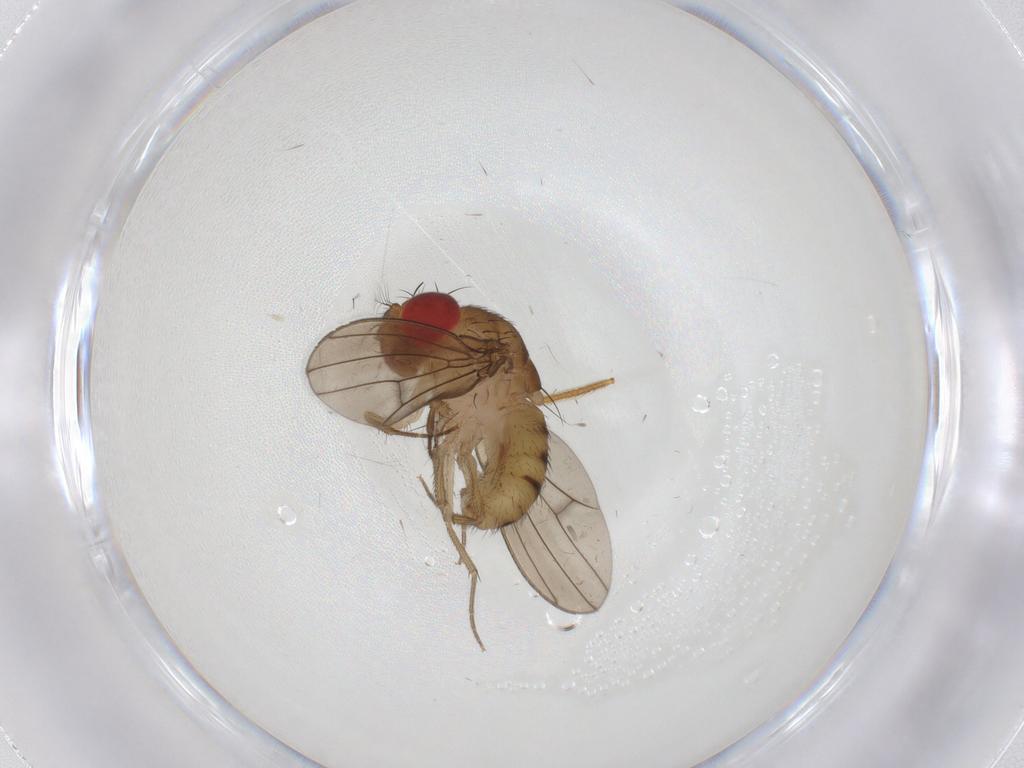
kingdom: Animalia
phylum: Arthropoda
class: Insecta
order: Diptera
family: Drosophilidae
